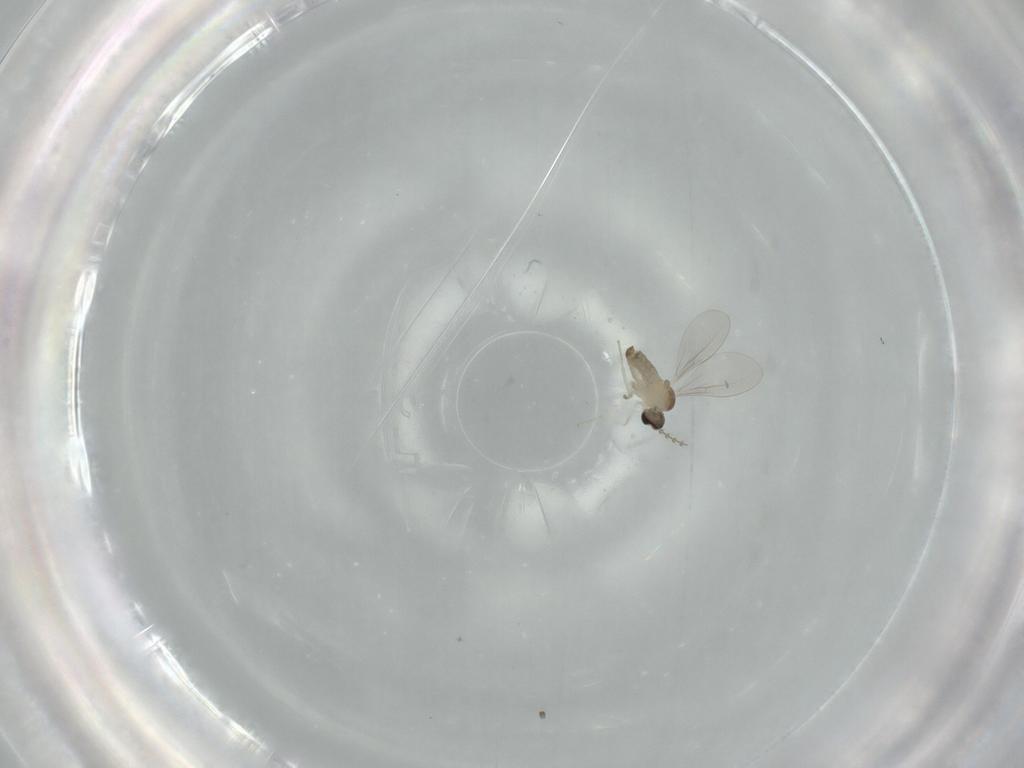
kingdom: Animalia
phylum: Arthropoda
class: Insecta
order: Diptera
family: Cecidomyiidae
